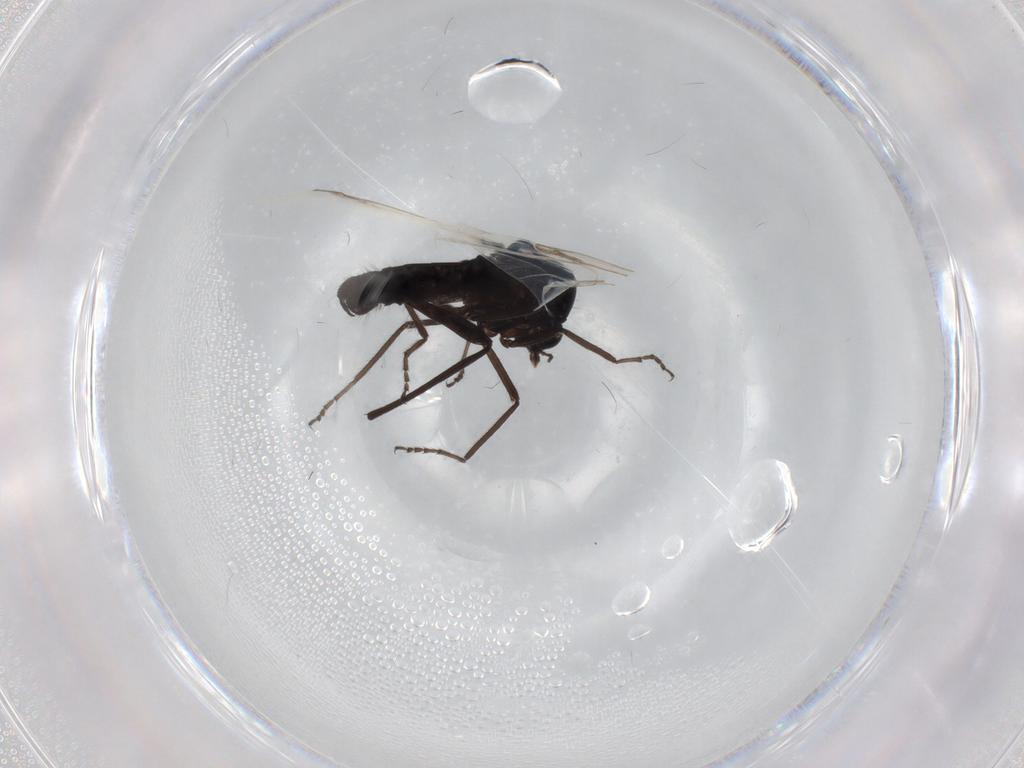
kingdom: Animalia
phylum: Arthropoda
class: Insecta
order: Diptera
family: Ceratopogonidae
